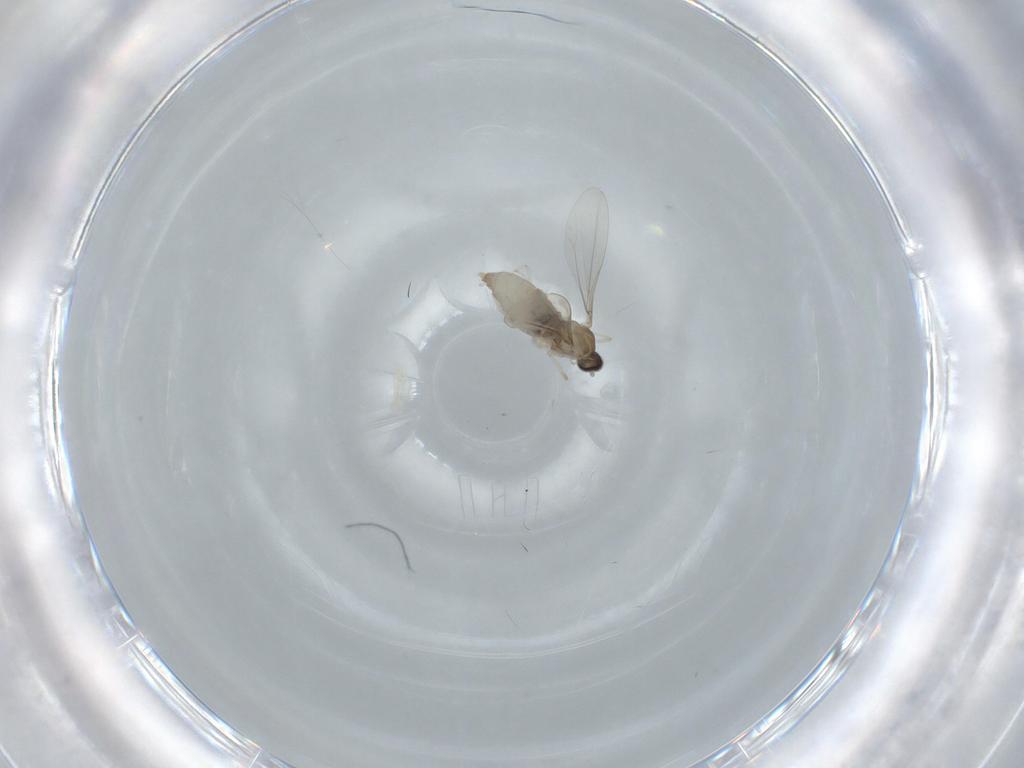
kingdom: Animalia
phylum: Arthropoda
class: Insecta
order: Diptera
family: Cecidomyiidae
